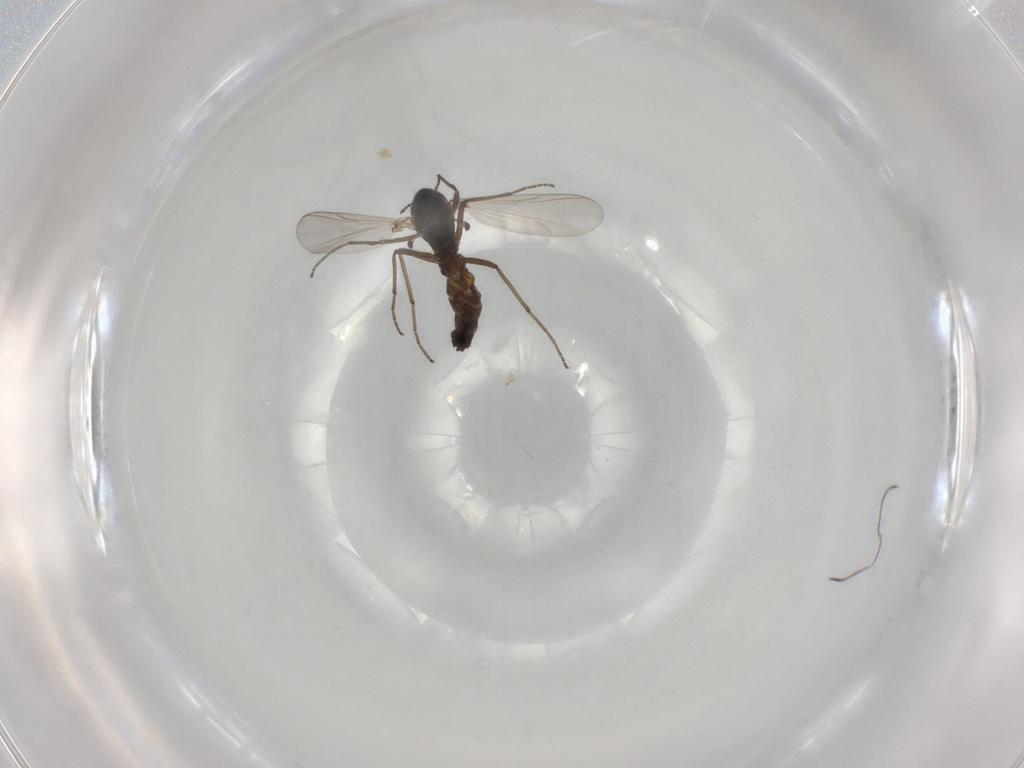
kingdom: Animalia
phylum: Arthropoda
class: Insecta
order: Diptera
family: Chironomidae
